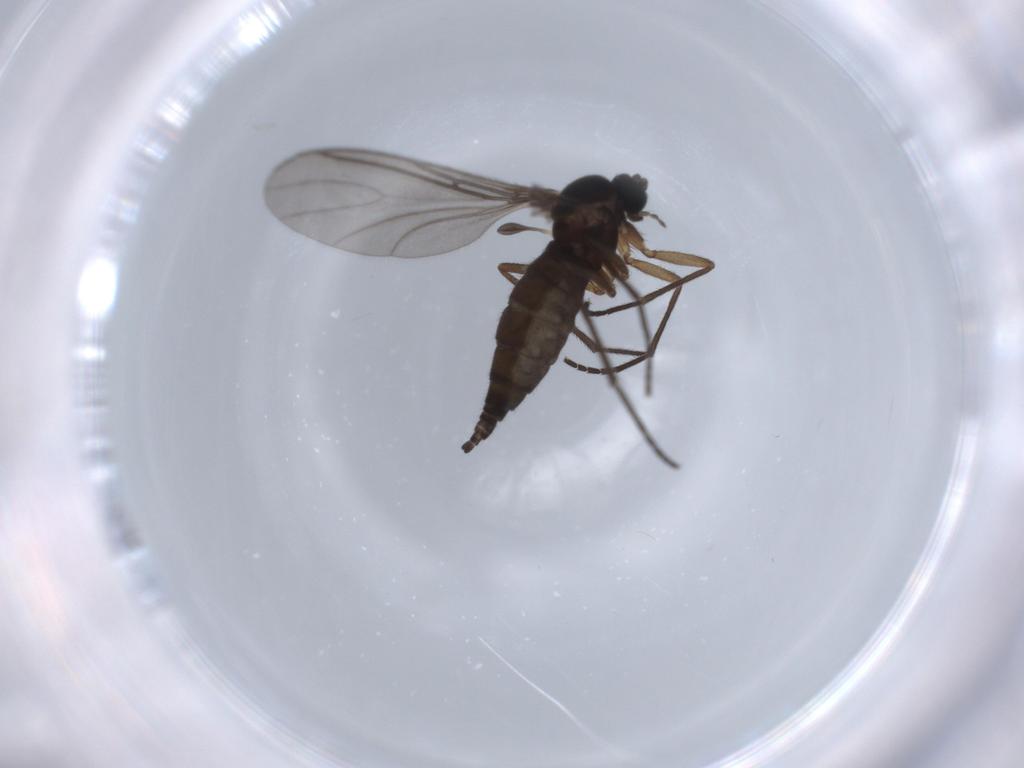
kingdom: Animalia
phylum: Arthropoda
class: Insecta
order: Diptera
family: Sciaridae
